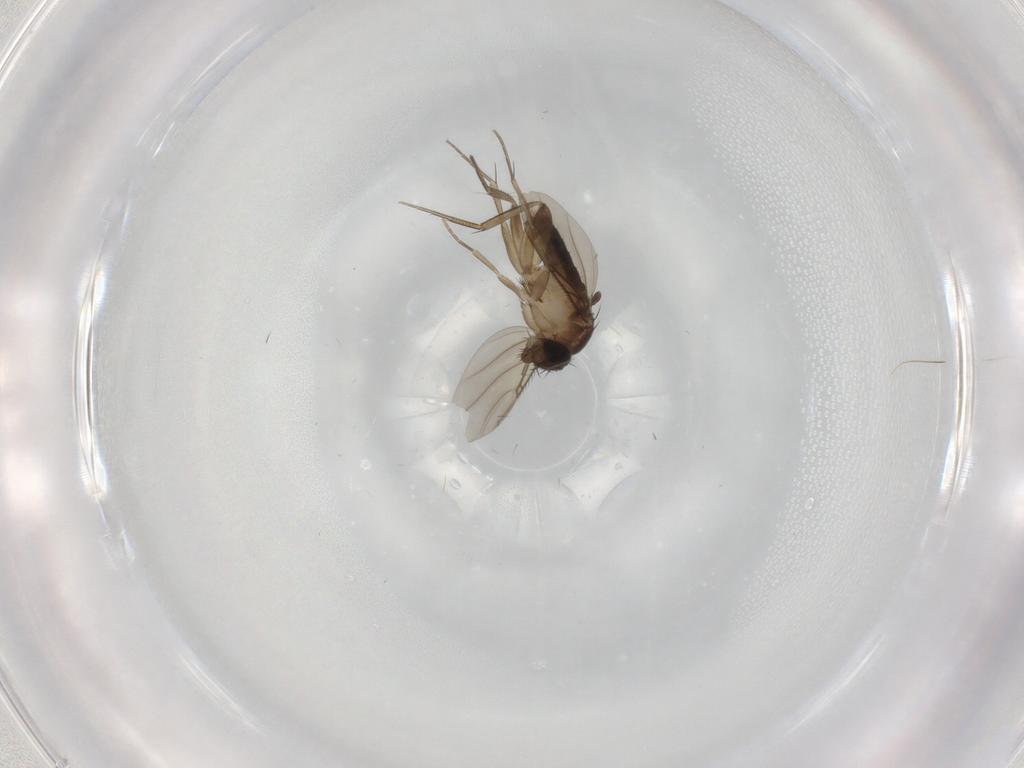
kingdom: Animalia
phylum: Arthropoda
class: Insecta
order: Diptera
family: Phoridae
